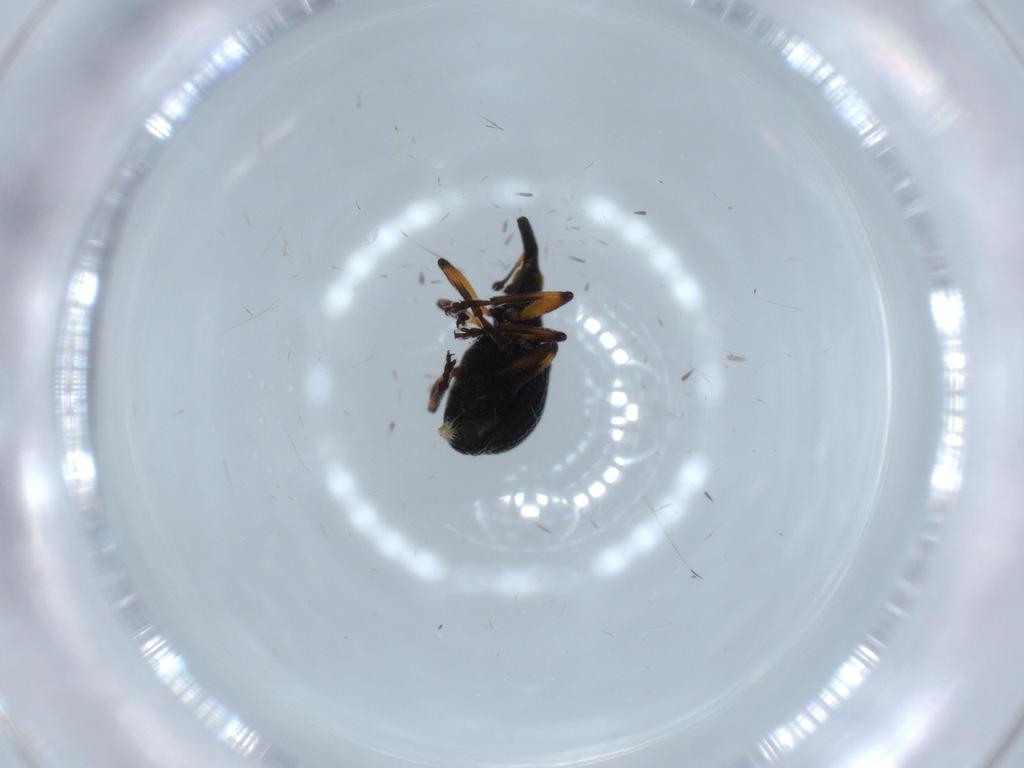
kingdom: Animalia
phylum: Arthropoda
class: Insecta
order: Coleoptera
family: Brentidae
